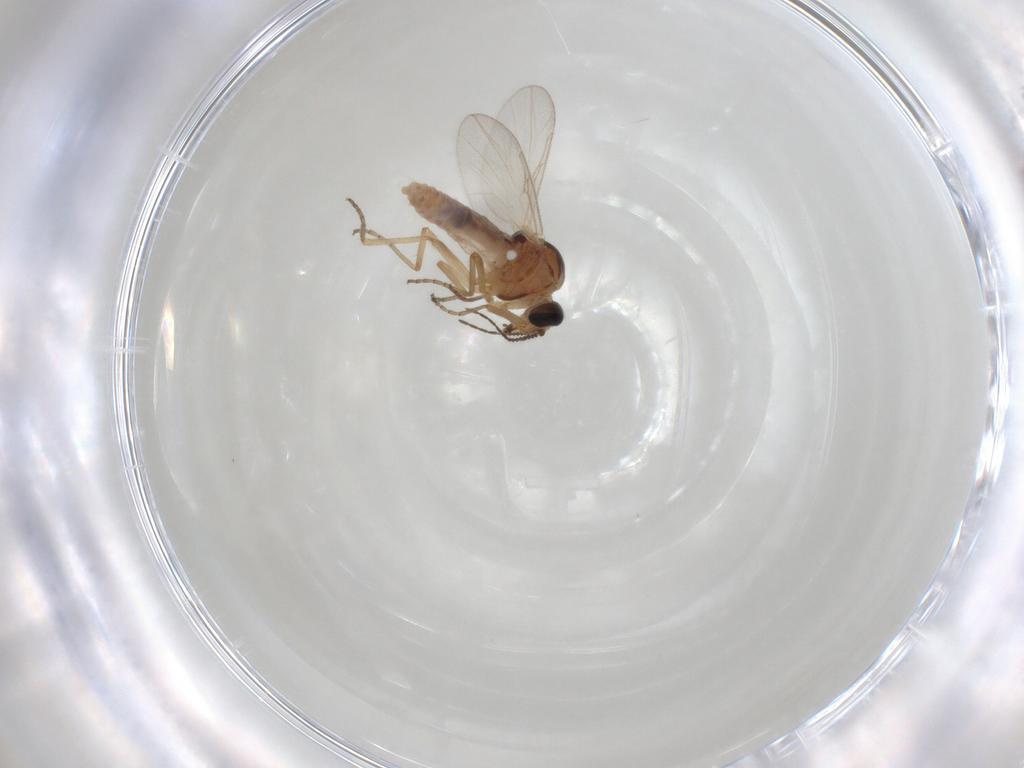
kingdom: Animalia
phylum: Arthropoda
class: Insecta
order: Diptera
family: Ceratopogonidae
